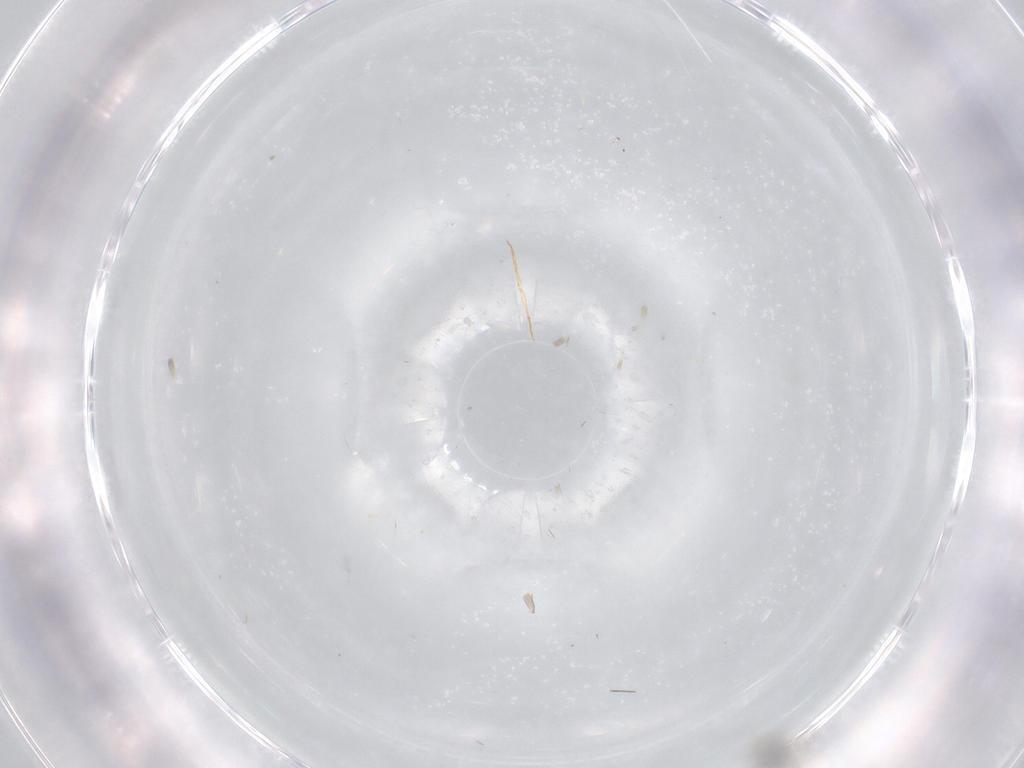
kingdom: Animalia
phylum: Arthropoda
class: Insecta
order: Diptera
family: Cecidomyiidae
